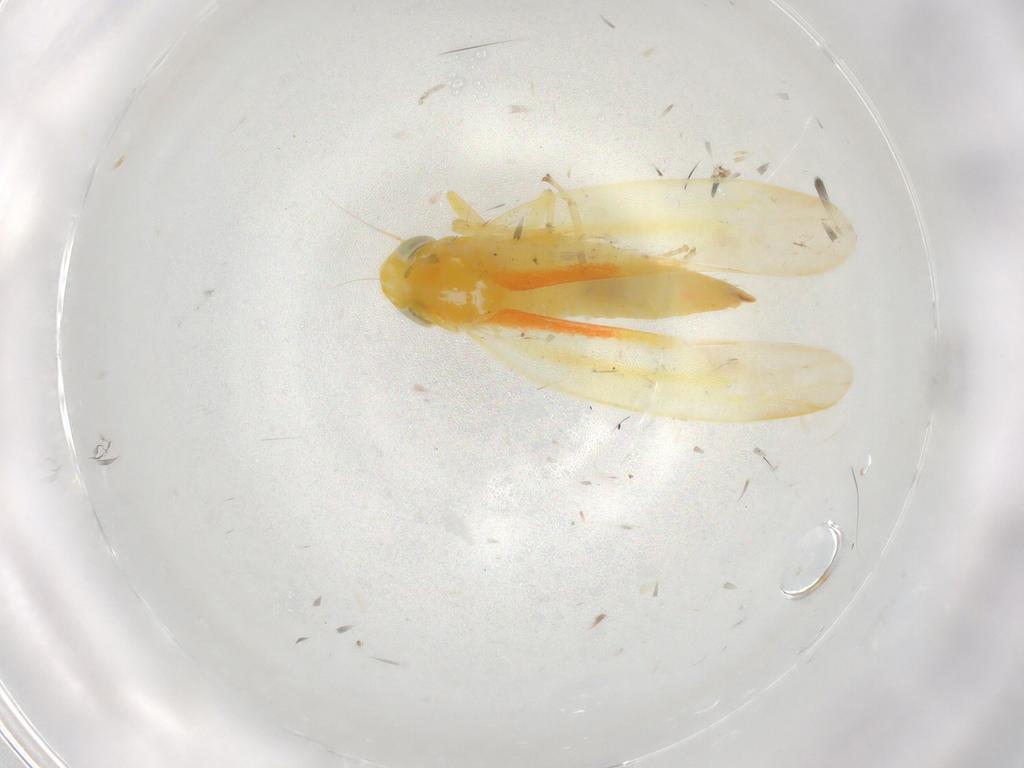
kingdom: Animalia
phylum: Arthropoda
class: Insecta
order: Hemiptera
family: Cicadellidae
